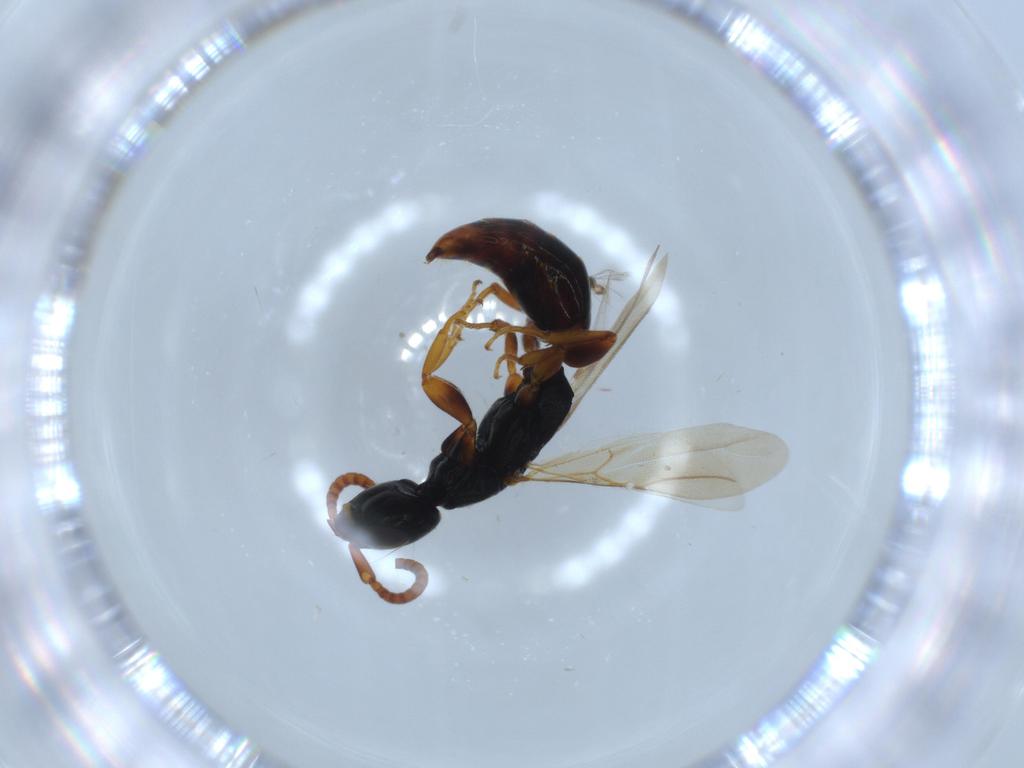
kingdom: Animalia
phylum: Arthropoda
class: Insecta
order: Hymenoptera
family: Bethylidae
